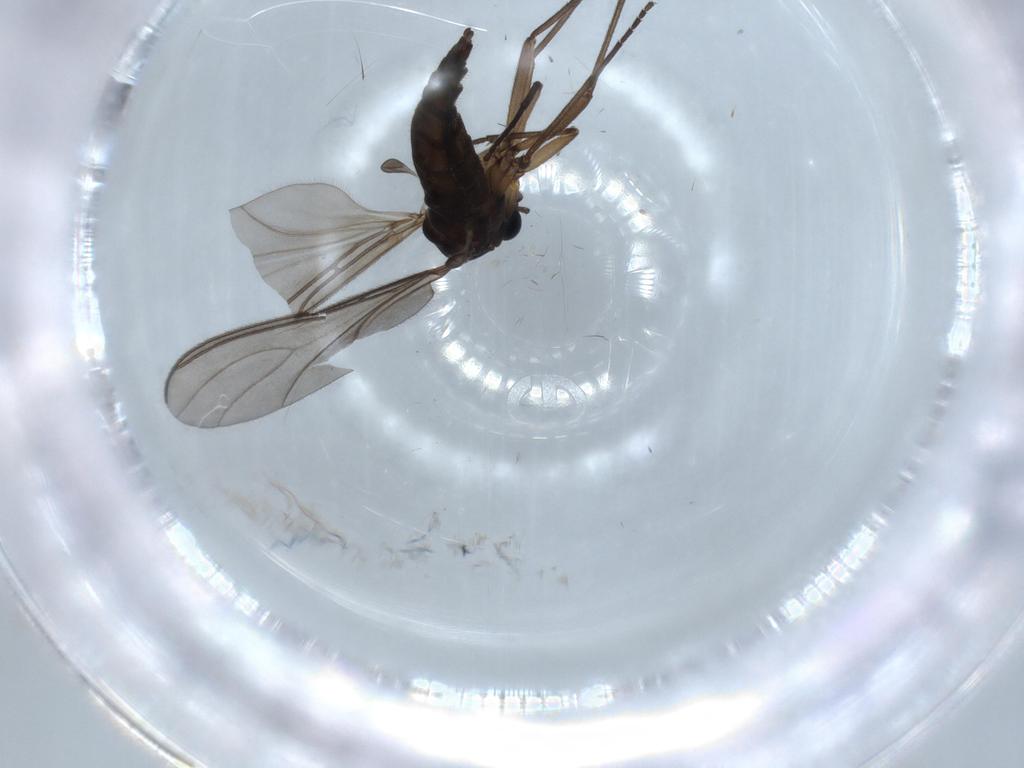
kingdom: Animalia
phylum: Arthropoda
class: Insecta
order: Diptera
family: Sciaridae
